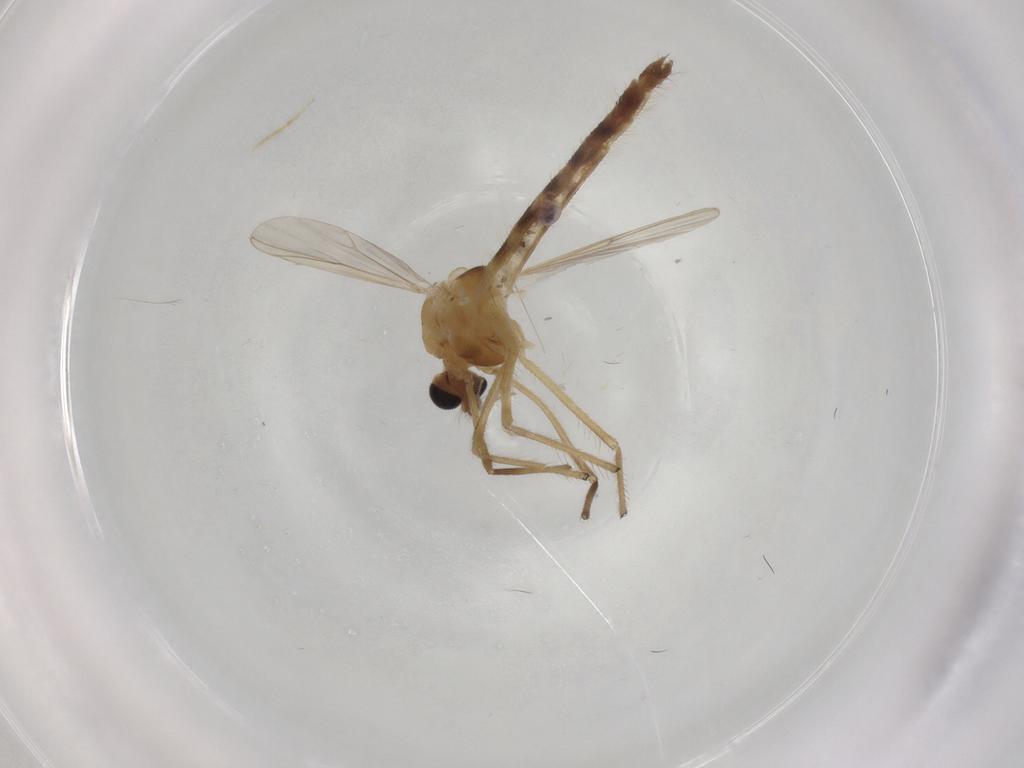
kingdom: Animalia
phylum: Arthropoda
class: Insecta
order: Diptera
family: Chironomidae
